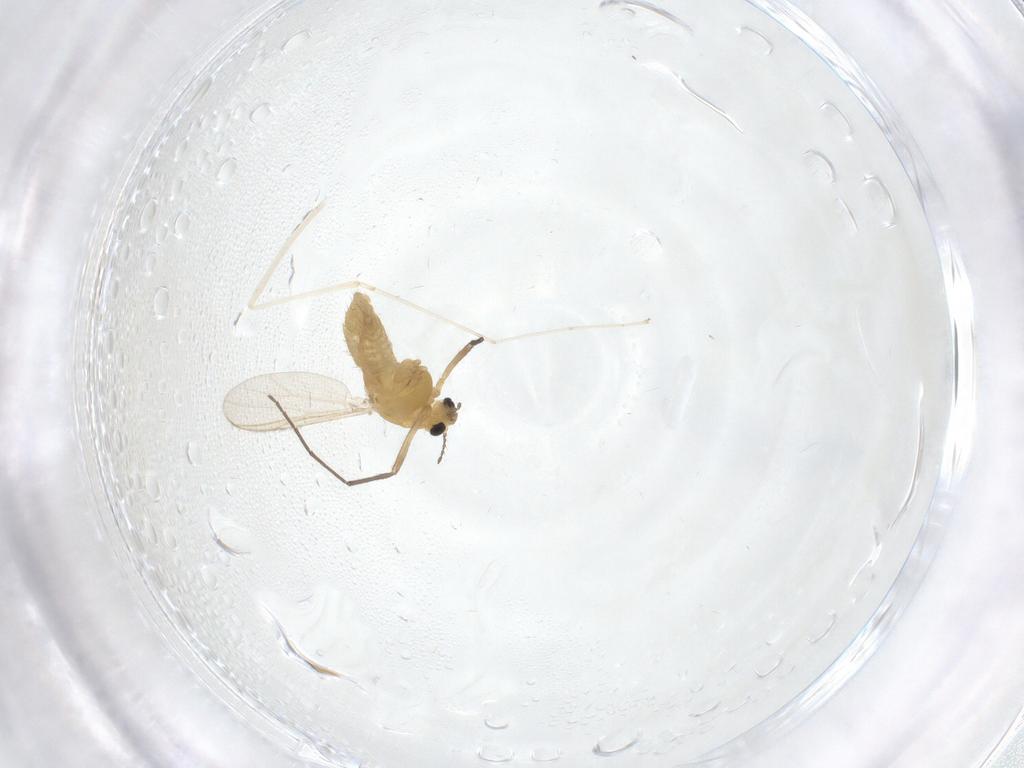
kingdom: Animalia
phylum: Arthropoda
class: Insecta
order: Diptera
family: Chironomidae
